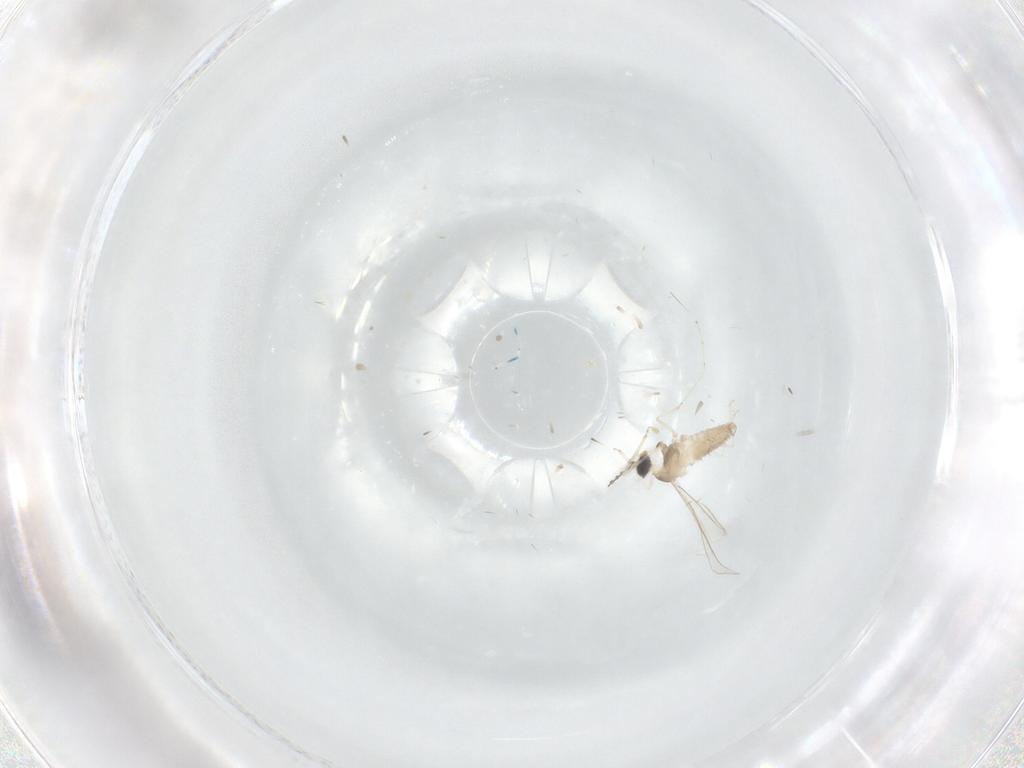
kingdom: Animalia
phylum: Arthropoda
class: Insecta
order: Diptera
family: Cecidomyiidae
